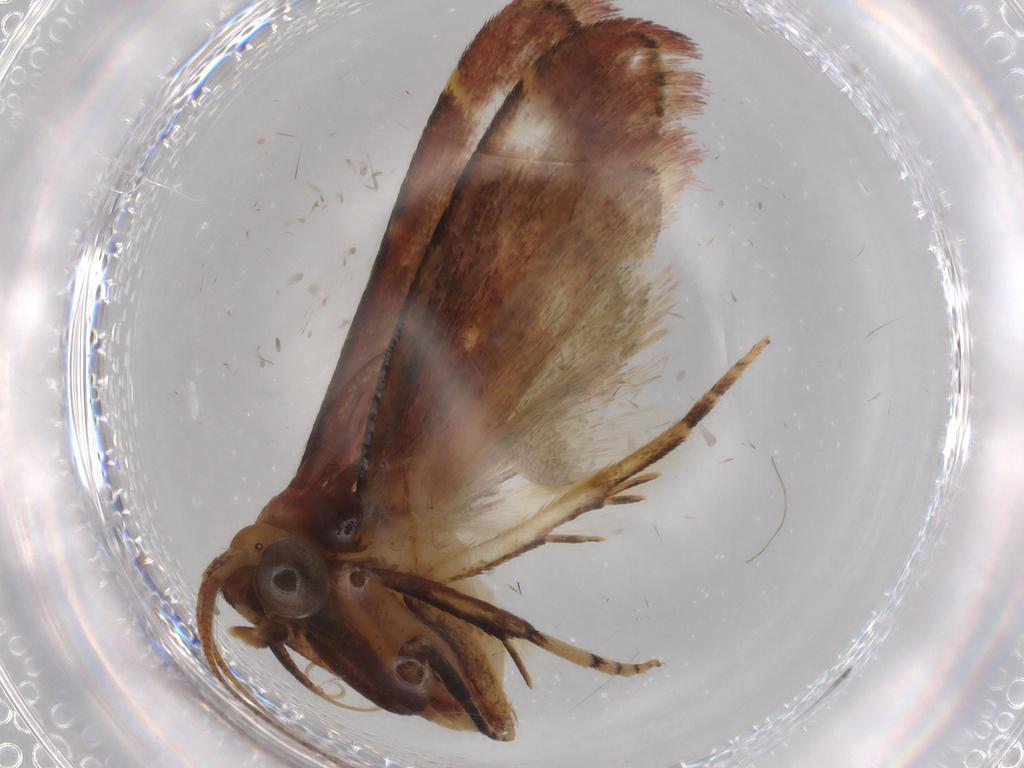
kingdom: Animalia
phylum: Arthropoda
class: Insecta
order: Lepidoptera
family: Nepticulidae
